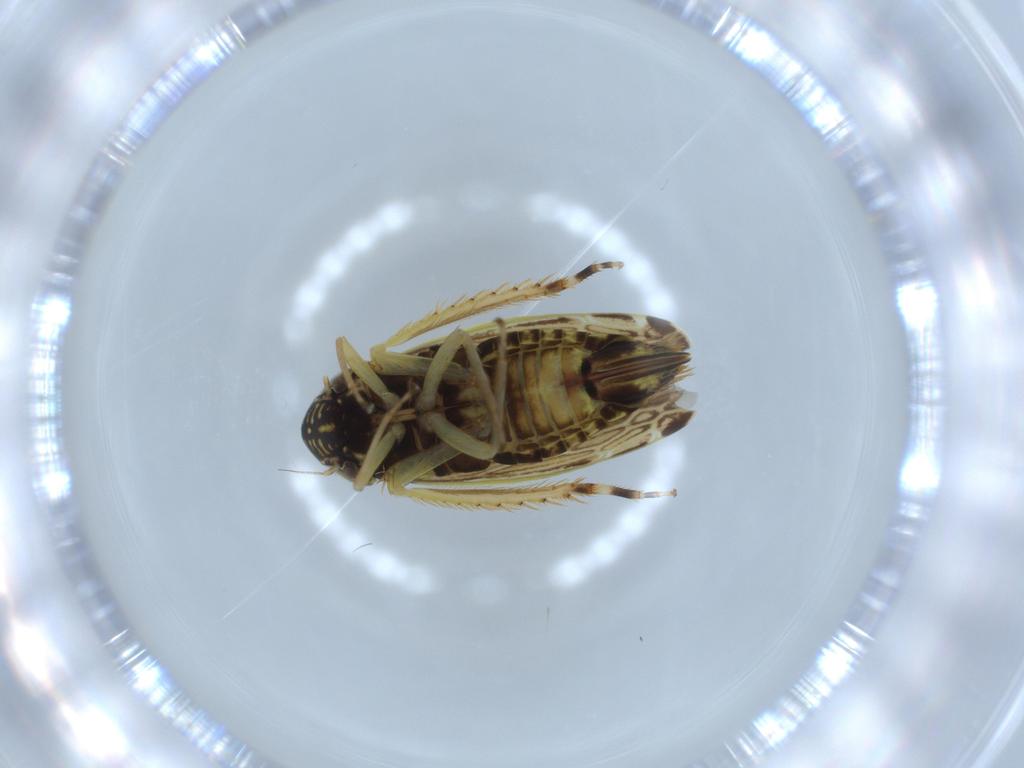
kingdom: Animalia
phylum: Arthropoda
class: Insecta
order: Hemiptera
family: Cicadellidae
